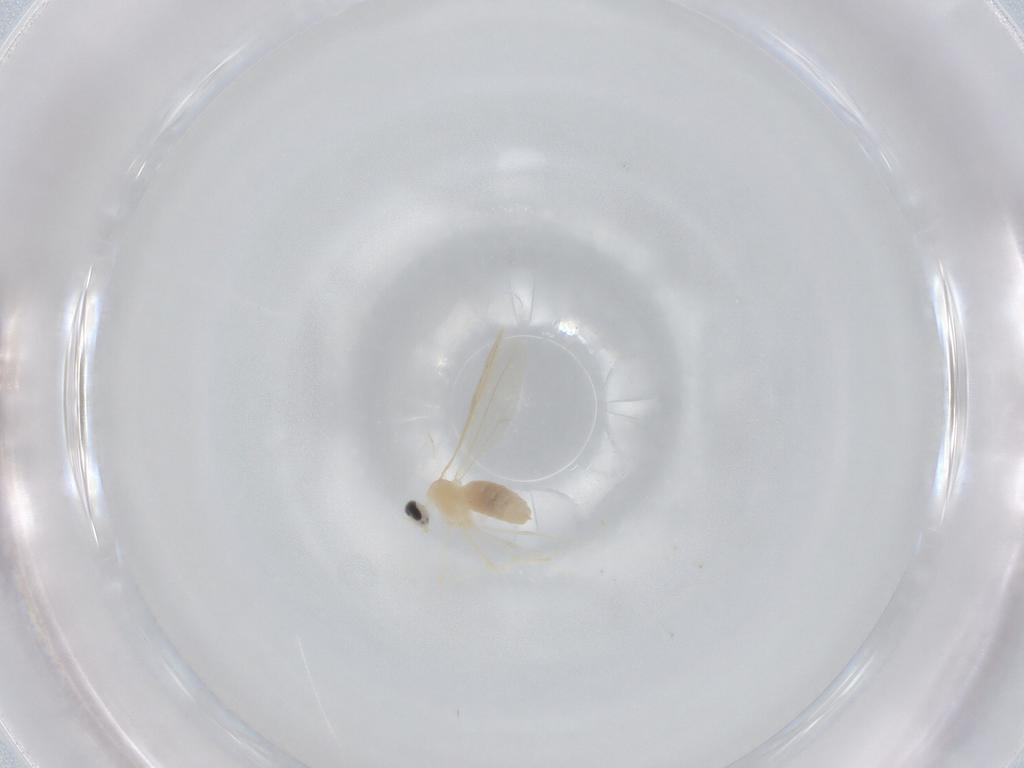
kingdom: Animalia
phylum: Arthropoda
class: Insecta
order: Diptera
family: Cecidomyiidae
